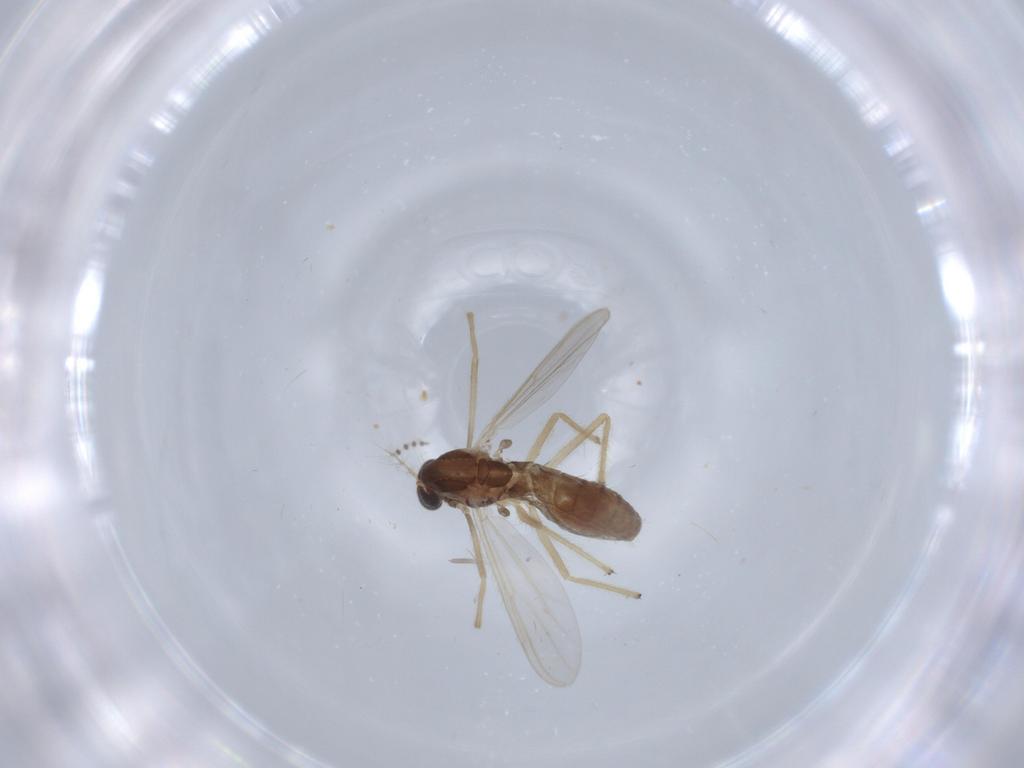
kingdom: Animalia
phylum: Arthropoda
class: Insecta
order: Diptera
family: Chironomidae
